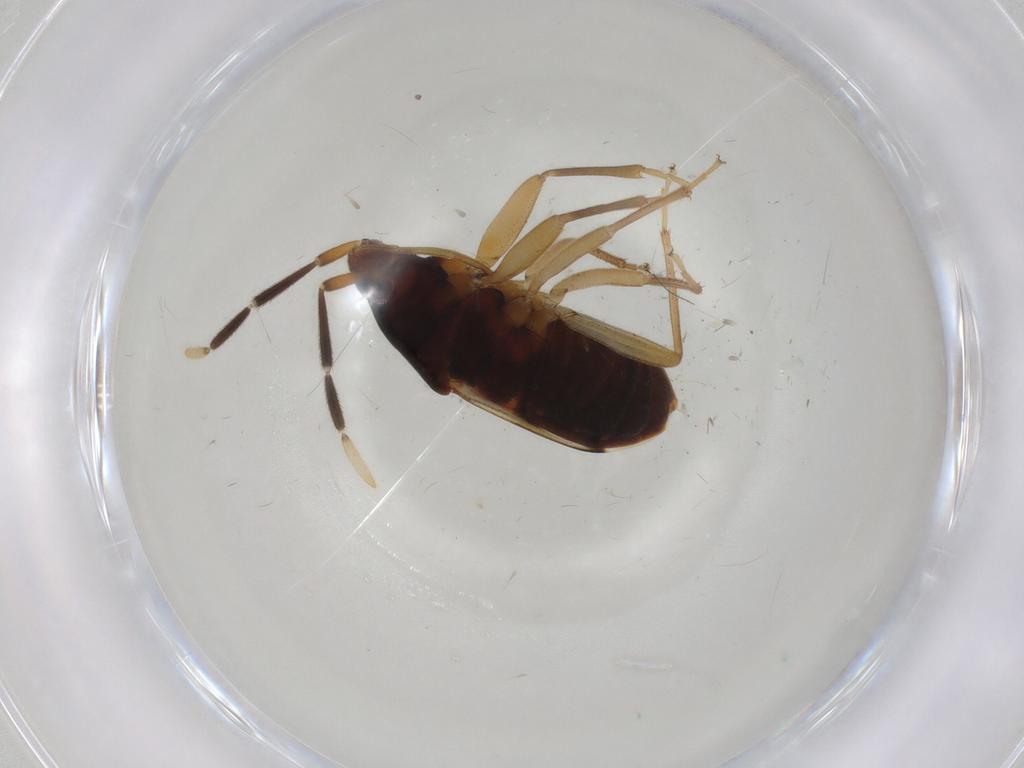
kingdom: Animalia
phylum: Arthropoda
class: Insecta
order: Hemiptera
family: Rhyparochromidae
